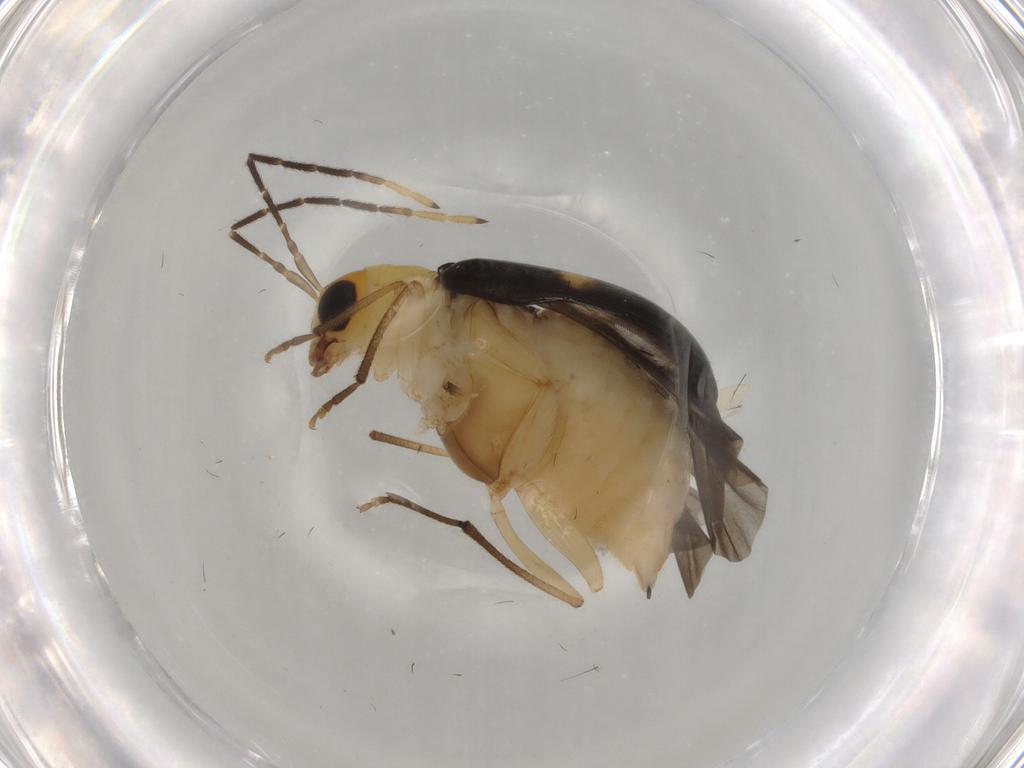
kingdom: Animalia
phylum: Arthropoda
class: Insecta
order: Coleoptera
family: Chrysomelidae
